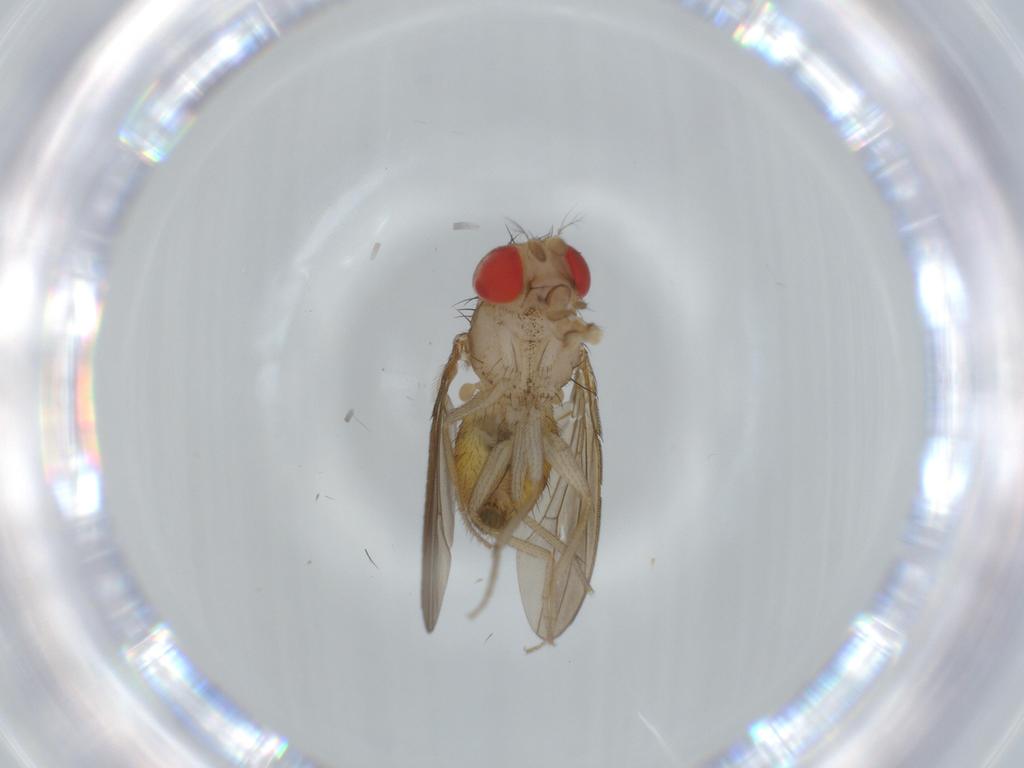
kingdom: Animalia
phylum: Arthropoda
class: Insecta
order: Diptera
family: Drosophilidae
